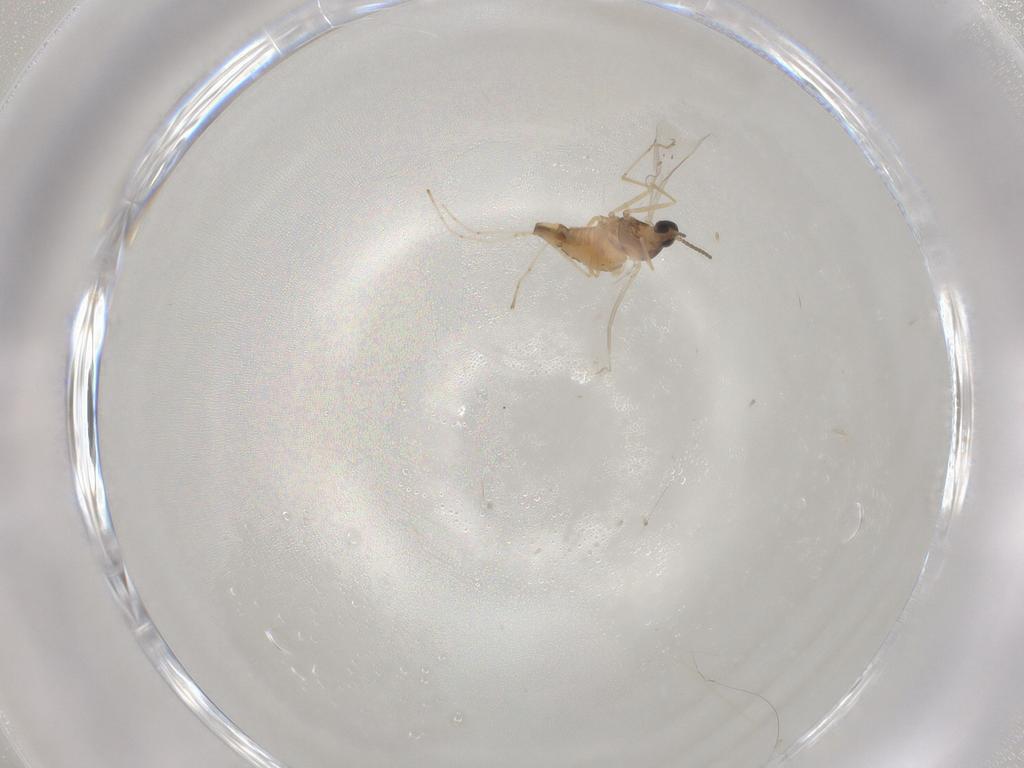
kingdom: Animalia
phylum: Arthropoda
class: Insecta
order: Diptera
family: Cecidomyiidae
